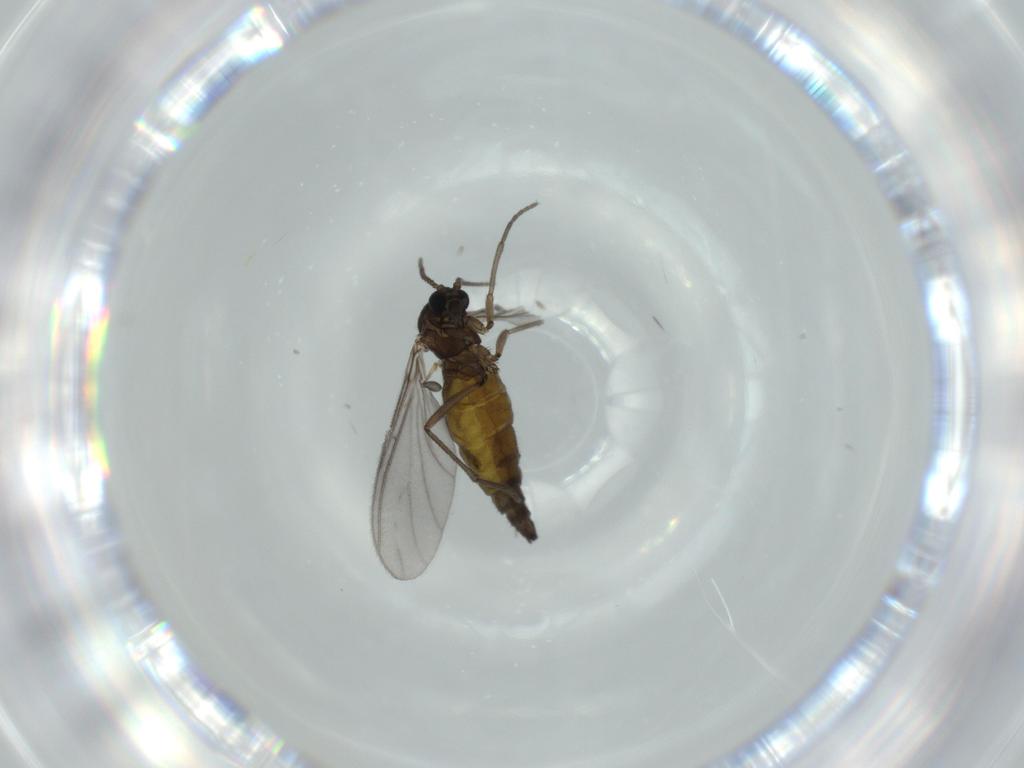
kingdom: Animalia
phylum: Arthropoda
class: Insecta
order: Diptera
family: Sciaridae
